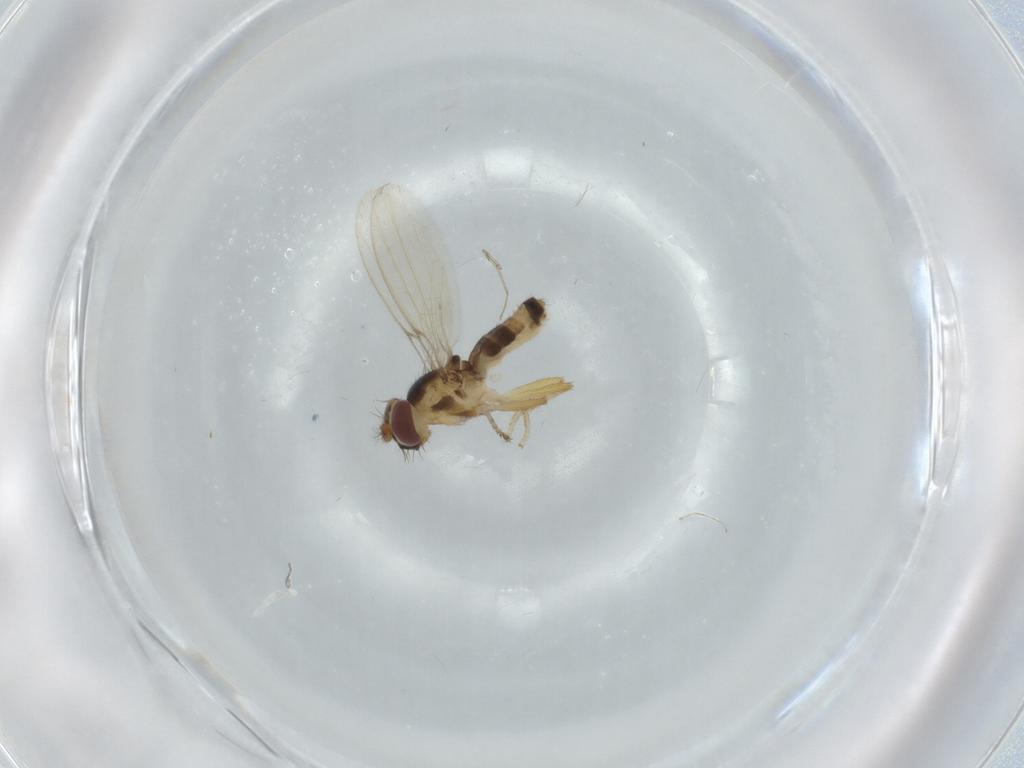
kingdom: Animalia
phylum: Arthropoda
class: Insecta
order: Diptera
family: Periscelididae
